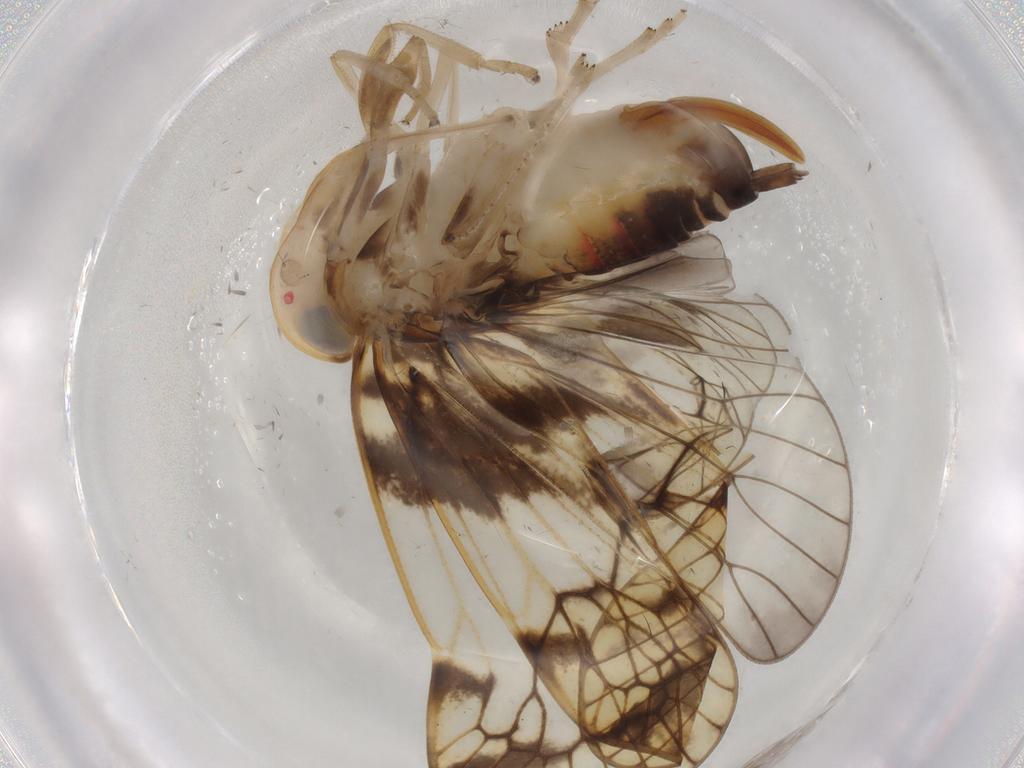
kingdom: Animalia
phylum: Arthropoda
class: Insecta
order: Hemiptera
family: Cixiidae
